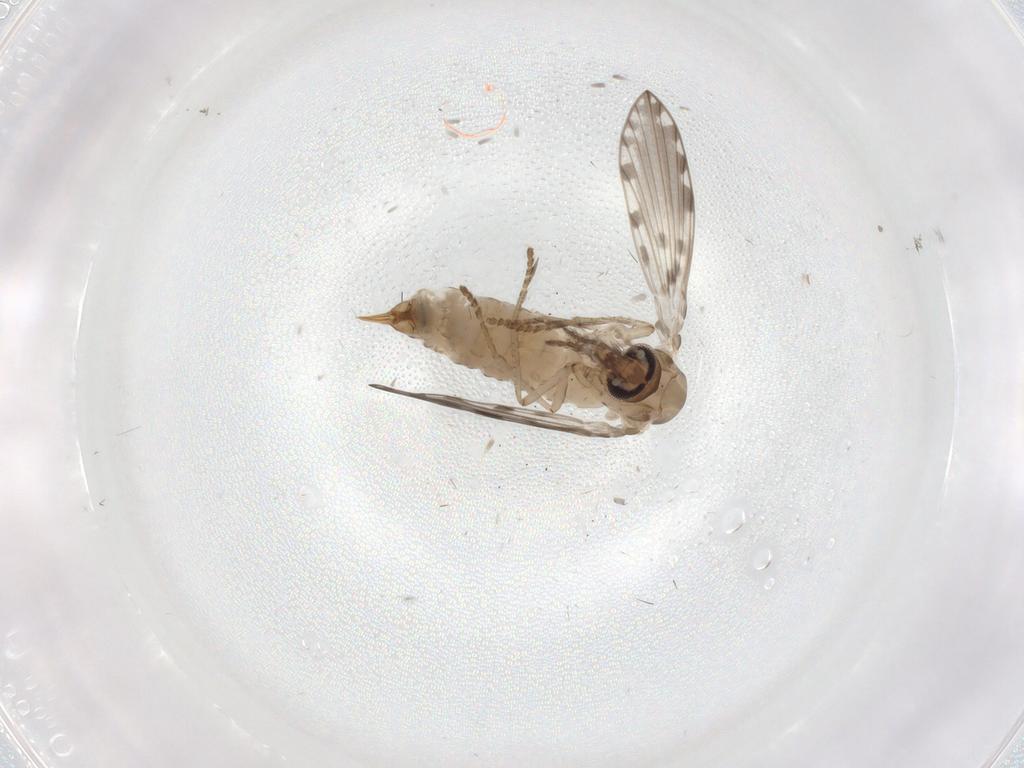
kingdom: Animalia
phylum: Arthropoda
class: Insecta
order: Diptera
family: Psychodidae
